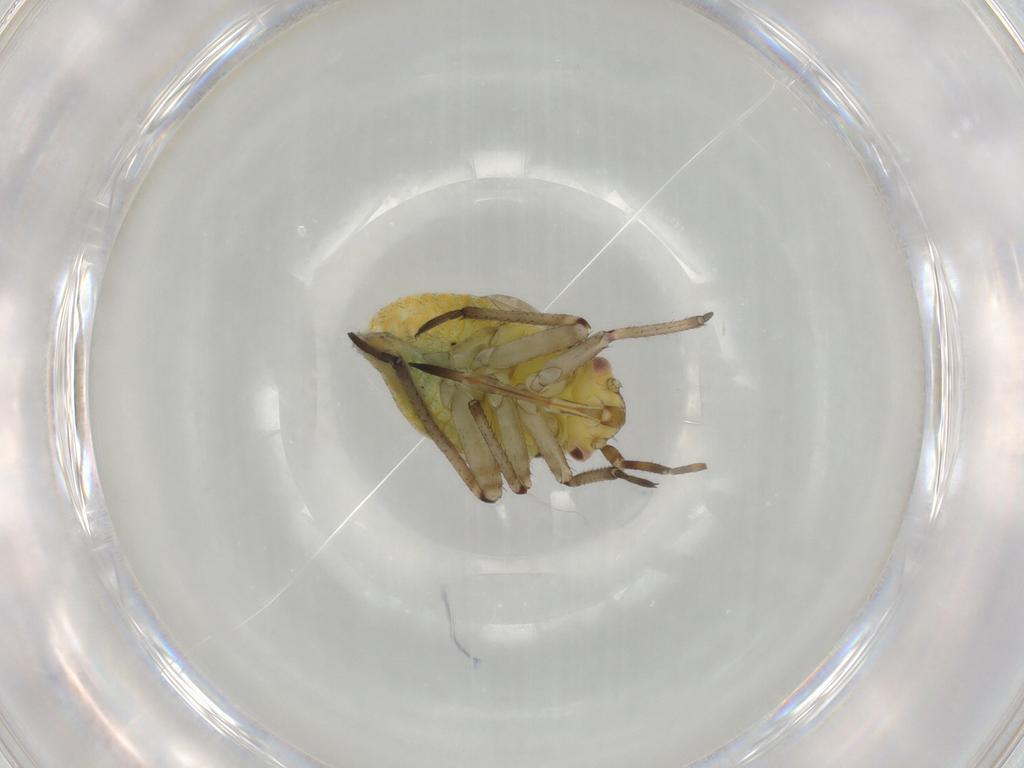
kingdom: Animalia
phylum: Arthropoda
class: Insecta
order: Hemiptera
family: Miridae
